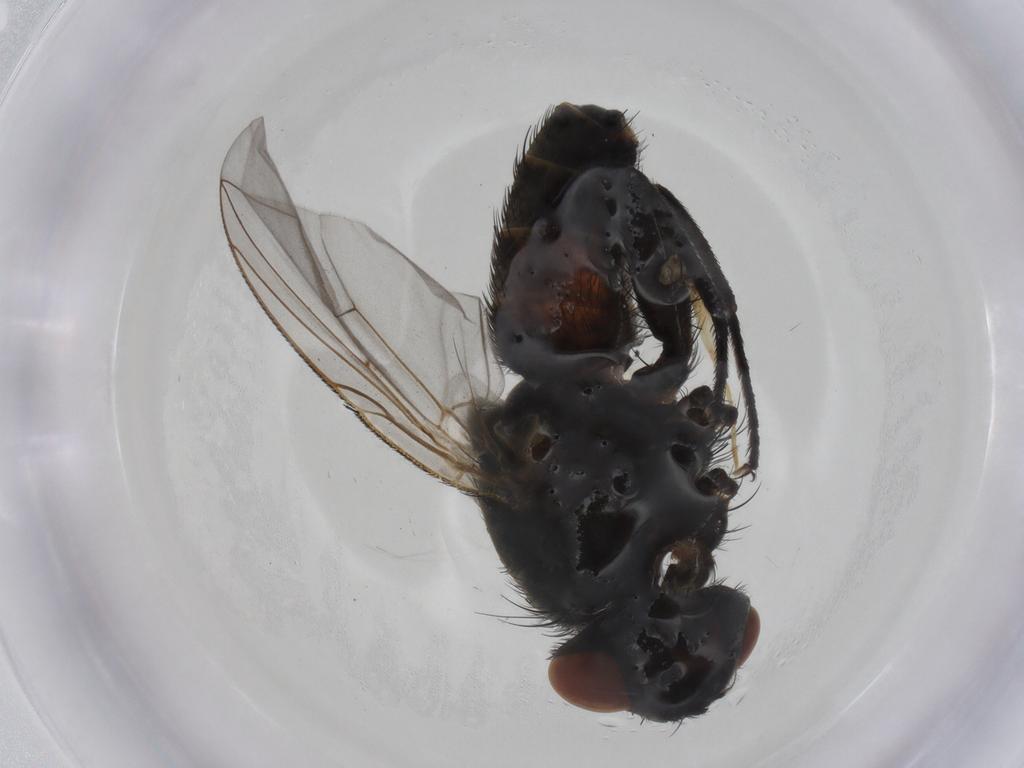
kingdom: Animalia
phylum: Arthropoda
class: Insecta
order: Diptera
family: Sarcophagidae
